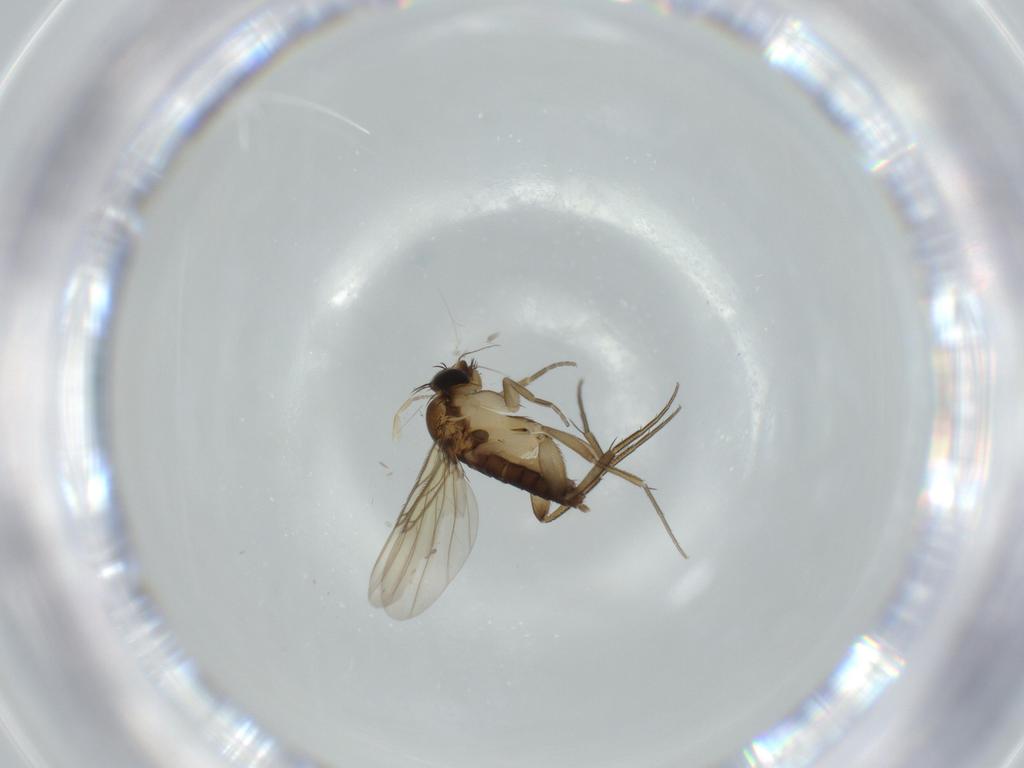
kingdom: Animalia
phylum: Arthropoda
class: Insecta
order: Diptera
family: Phoridae
